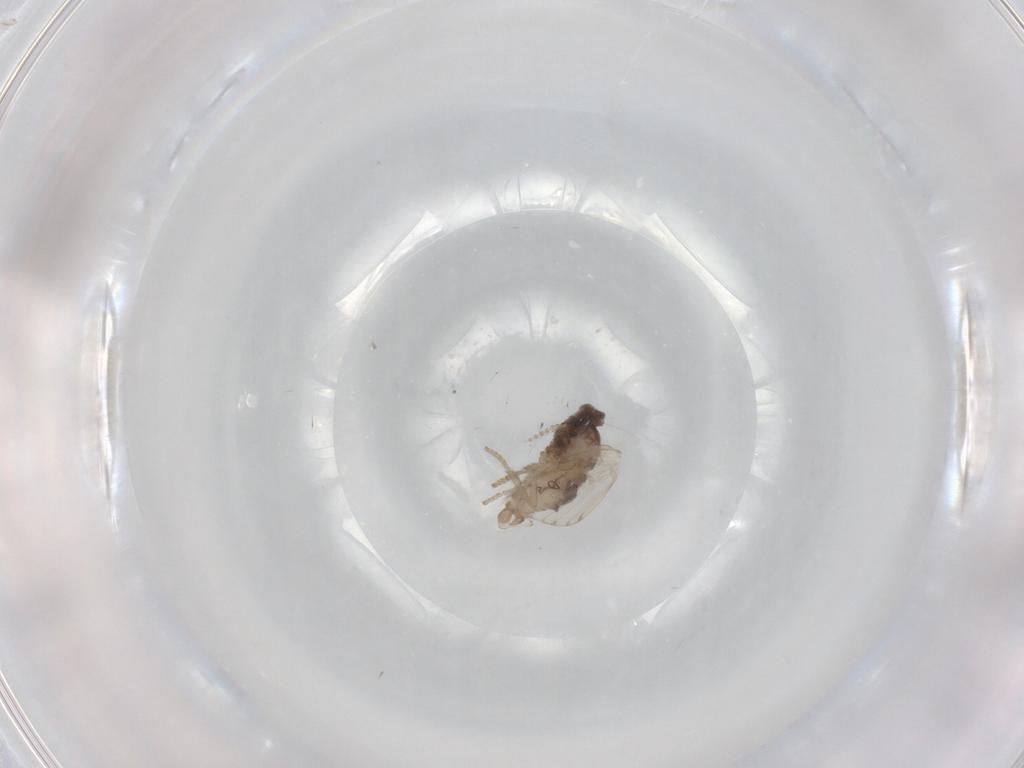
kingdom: Animalia
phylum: Arthropoda
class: Insecta
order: Diptera
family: Psychodidae
